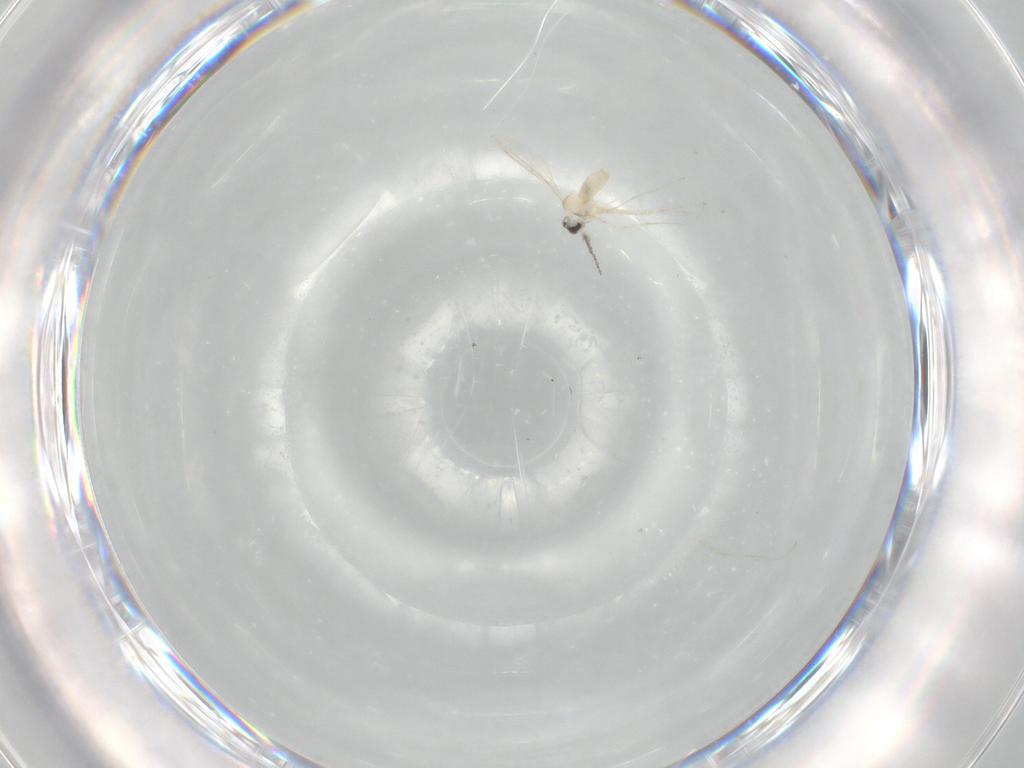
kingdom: Animalia
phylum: Arthropoda
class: Insecta
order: Diptera
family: Cecidomyiidae
